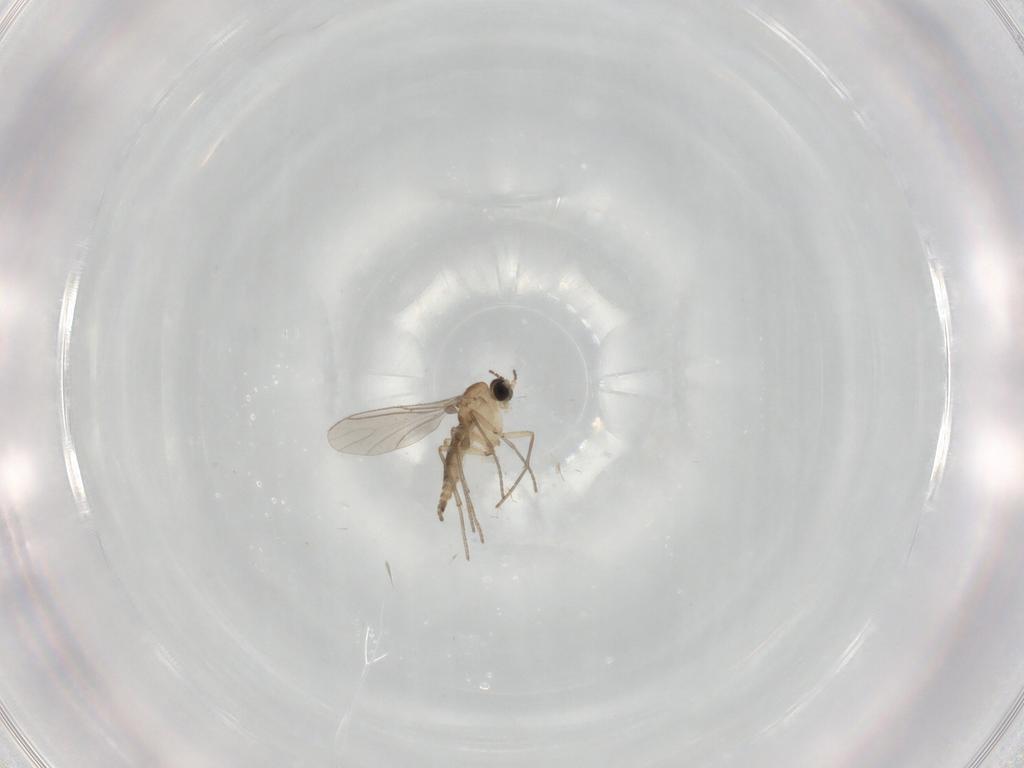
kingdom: Animalia
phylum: Arthropoda
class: Insecta
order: Diptera
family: Sciaridae
